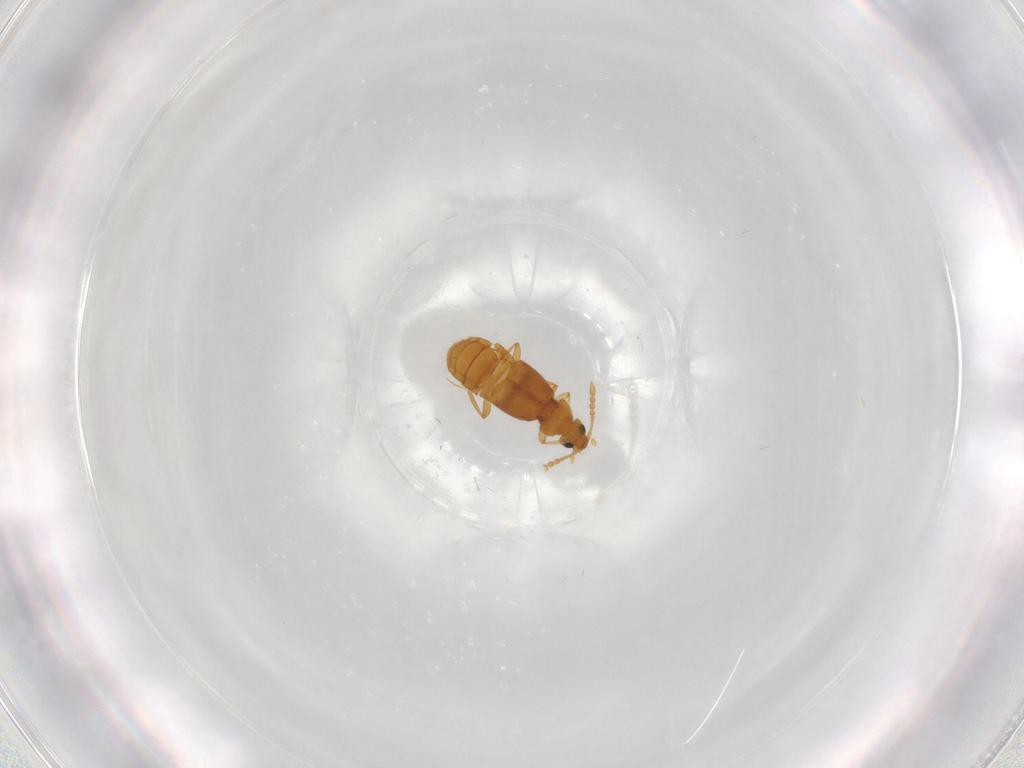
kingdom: Animalia
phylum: Arthropoda
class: Insecta
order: Coleoptera
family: Staphylinidae
